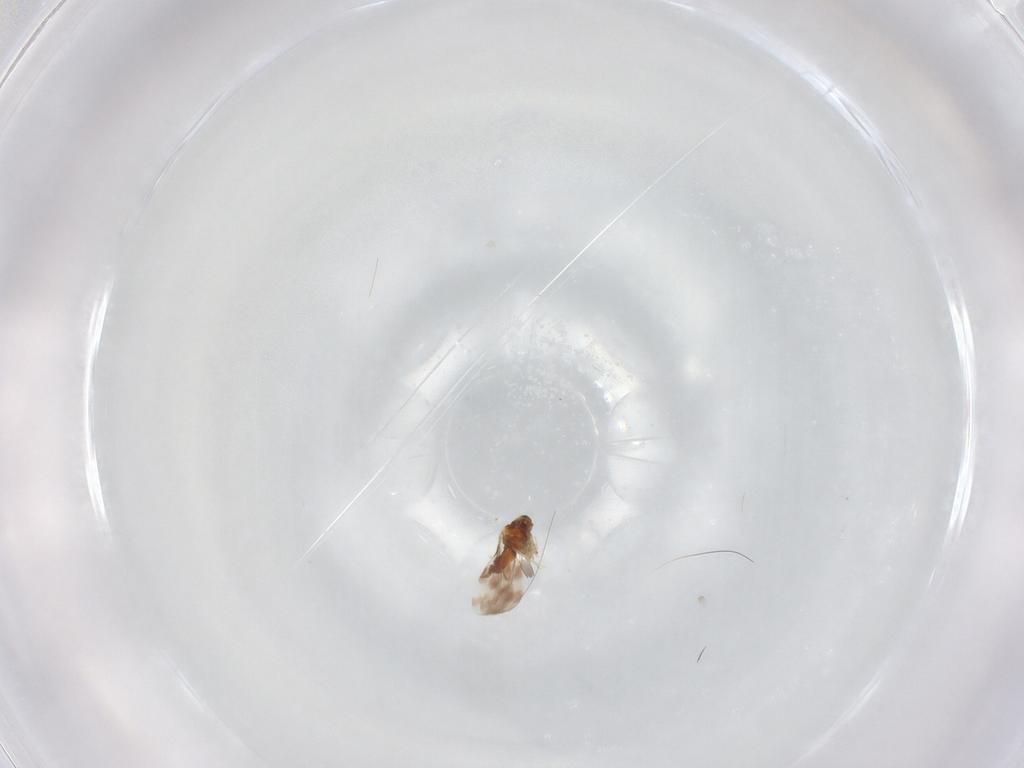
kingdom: Animalia
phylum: Arthropoda
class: Insecta
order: Hemiptera
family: Aleyrodidae
